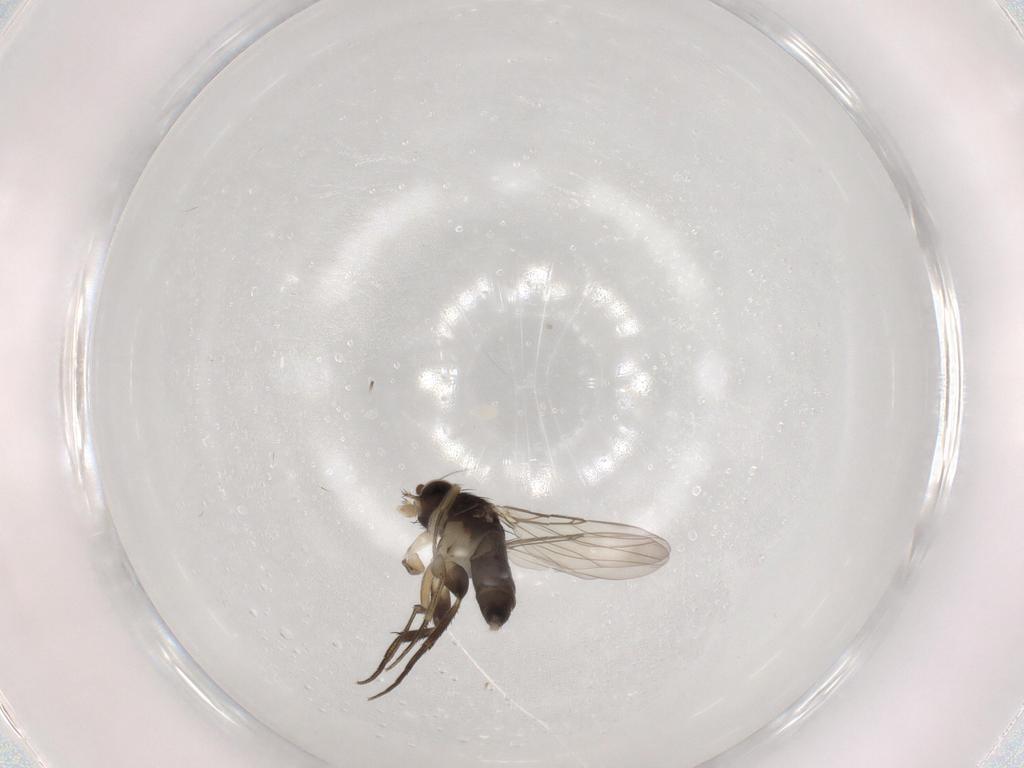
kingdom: Animalia
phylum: Arthropoda
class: Insecta
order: Diptera
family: Phoridae
